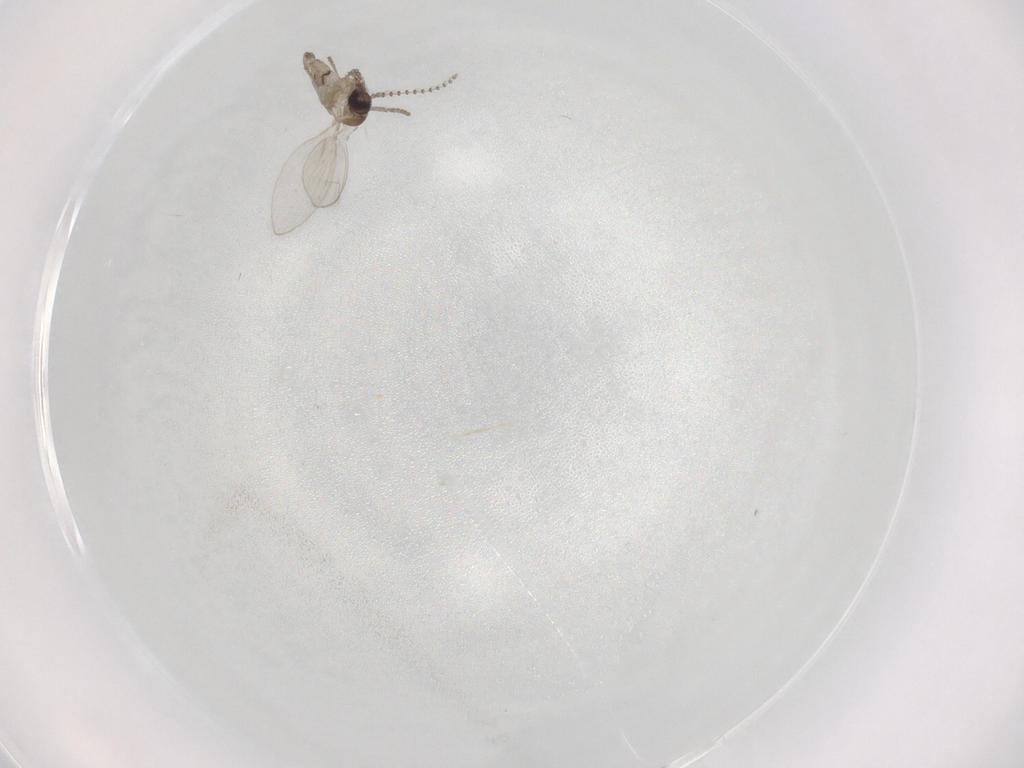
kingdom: Animalia
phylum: Arthropoda
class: Insecta
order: Diptera
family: Psychodidae
